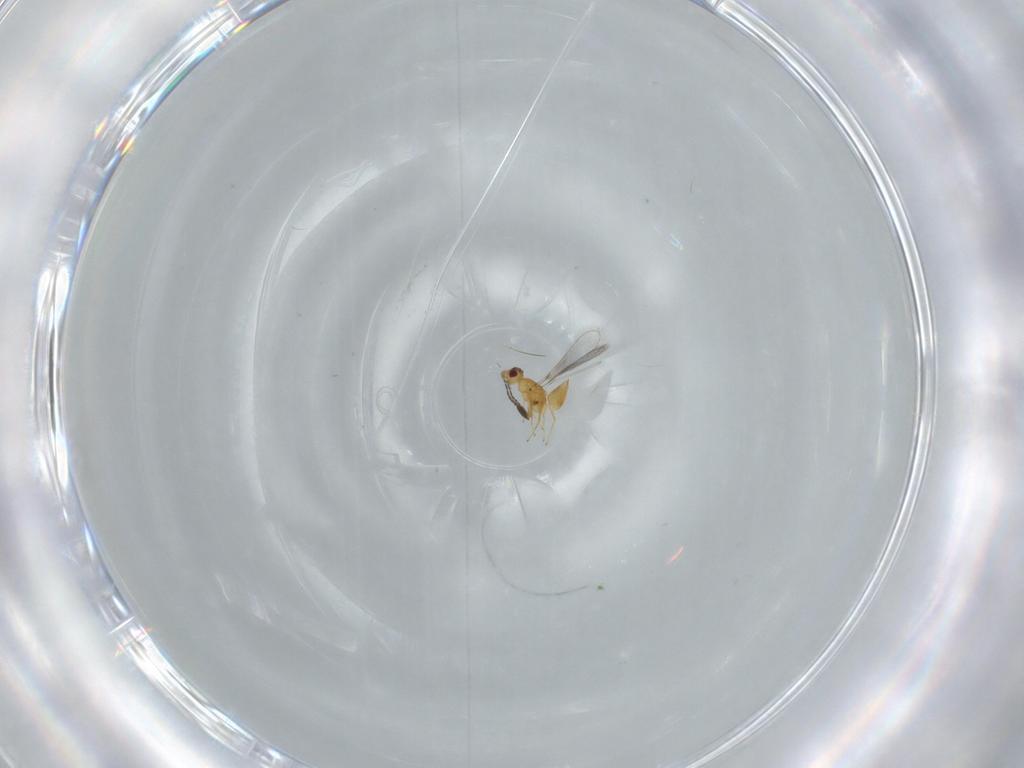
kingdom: Animalia
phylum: Arthropoda
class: Insecta
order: Hymenoptera
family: Mymaridae
